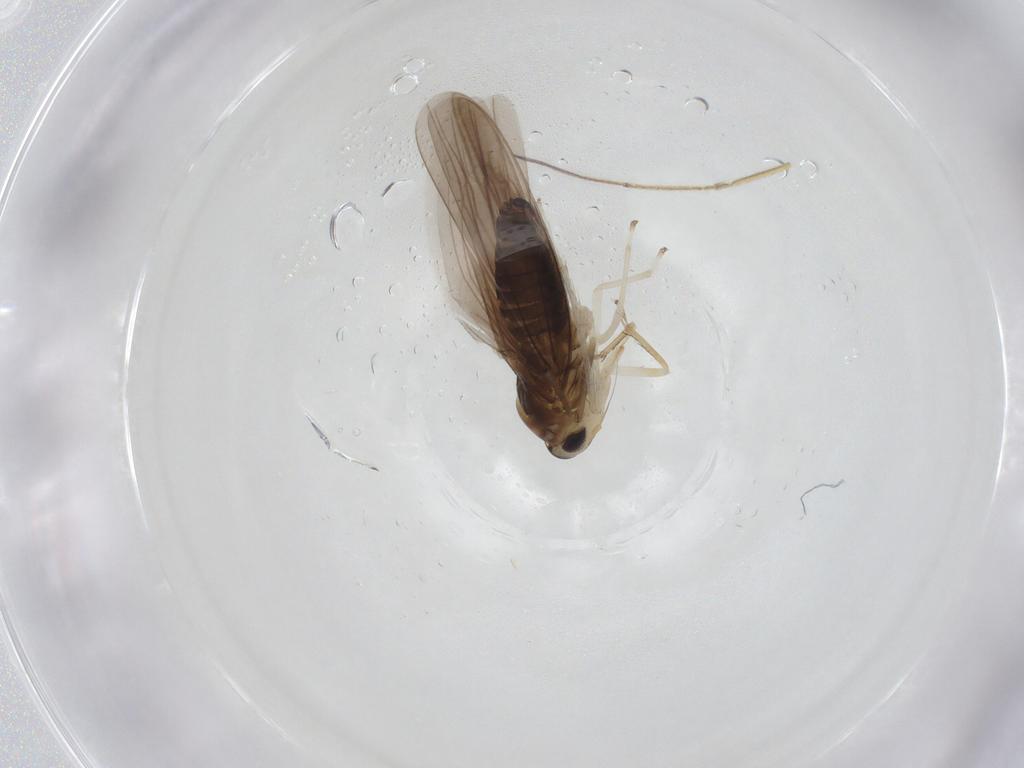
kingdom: Animalia
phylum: Arthropoda
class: Insecta
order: Hemiptera
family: Cicadellidae
